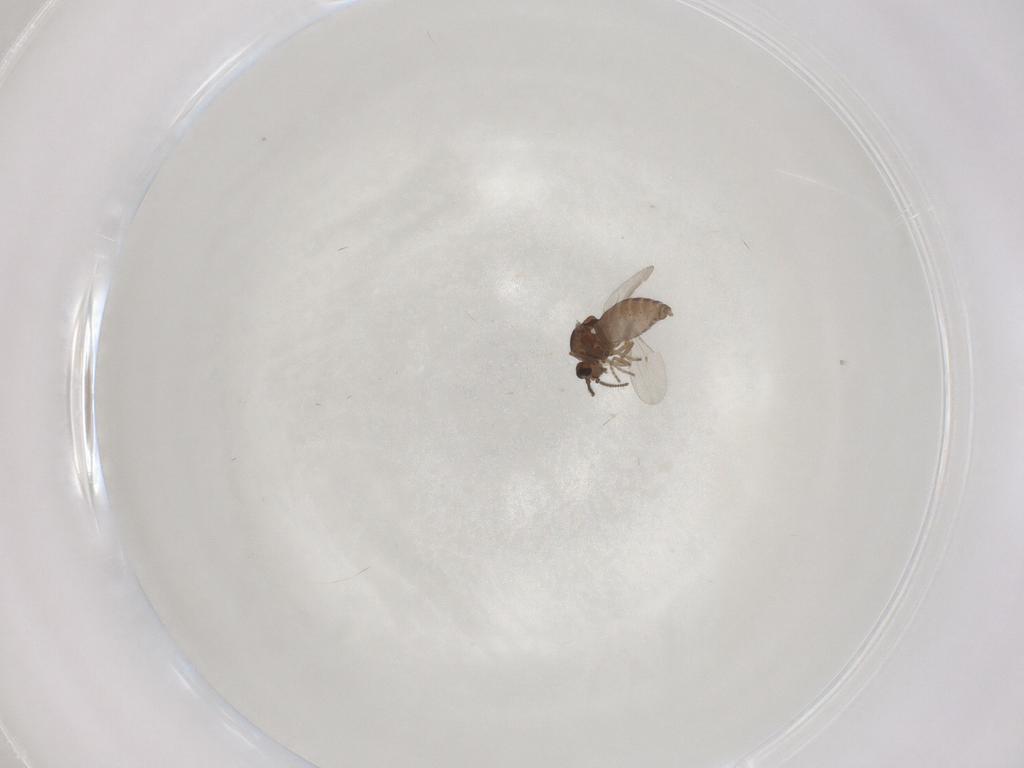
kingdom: Animalia
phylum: Arthropoda
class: Insecta
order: Diptera
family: Ceratopogonidae
